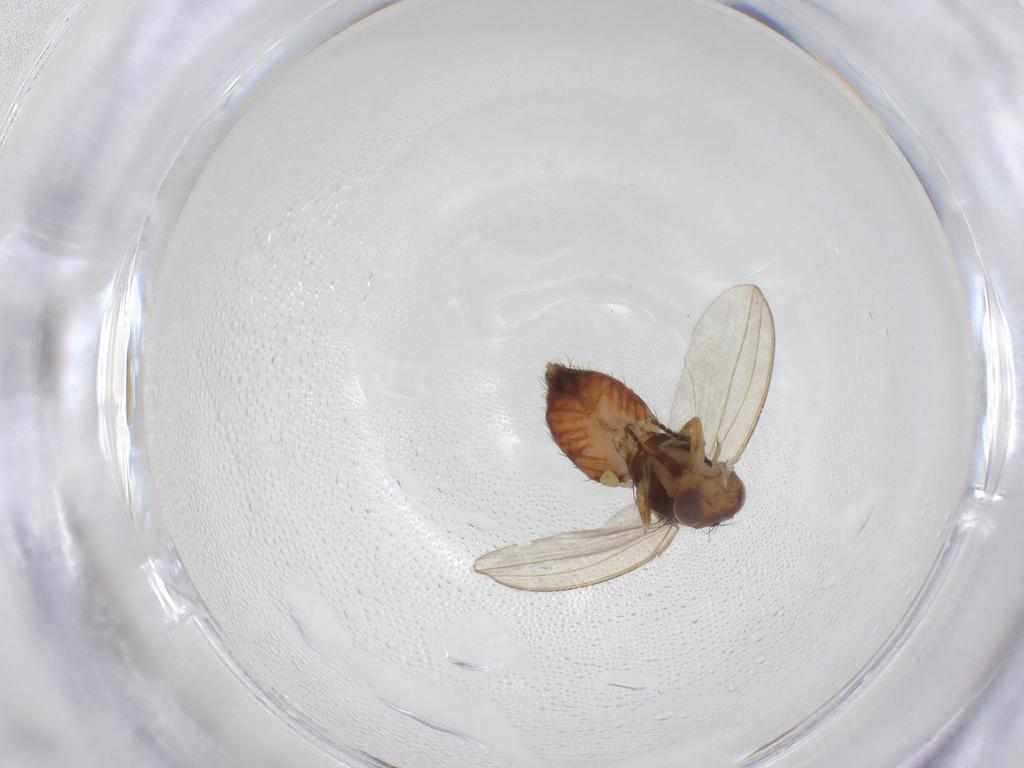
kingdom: Animalia
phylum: Arthropoda
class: Insecta
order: Diptera
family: Milichiidae
